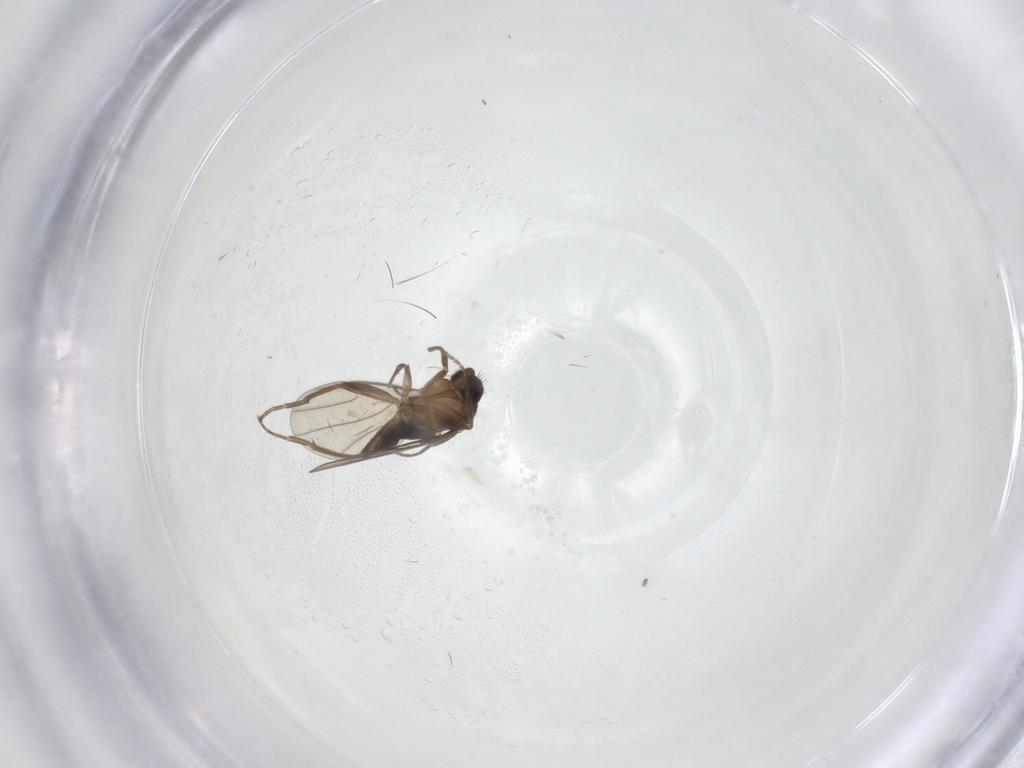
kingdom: Animalia
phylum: Arthropoda
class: Insecta
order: Diptera
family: Phoridae
